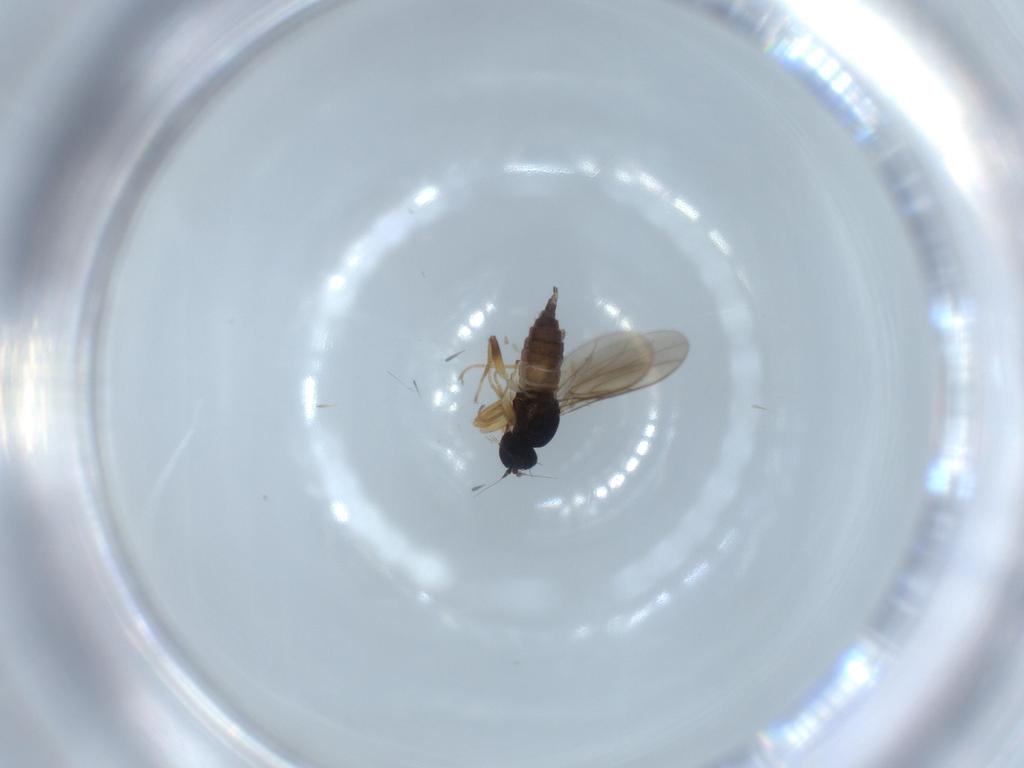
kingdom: Animalia
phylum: Arthropoda
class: Insecta
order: Diptera
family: Hybotidae
